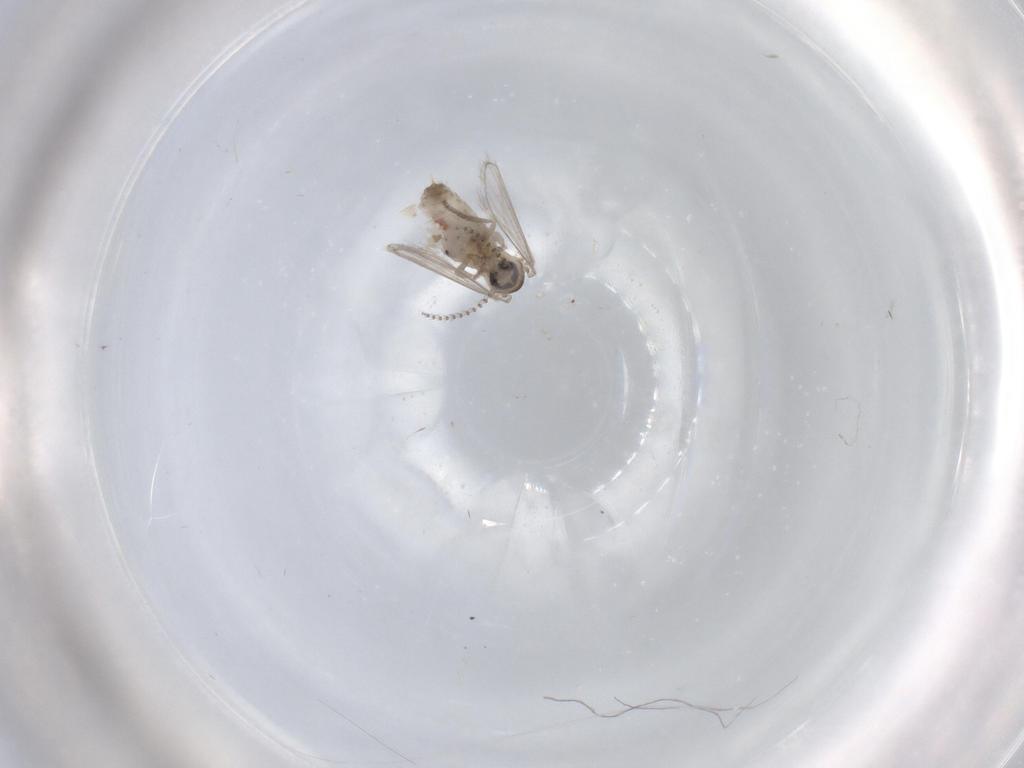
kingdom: Animalia
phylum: Arthropoda
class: Insecta
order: Diptera
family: Psychodidae
